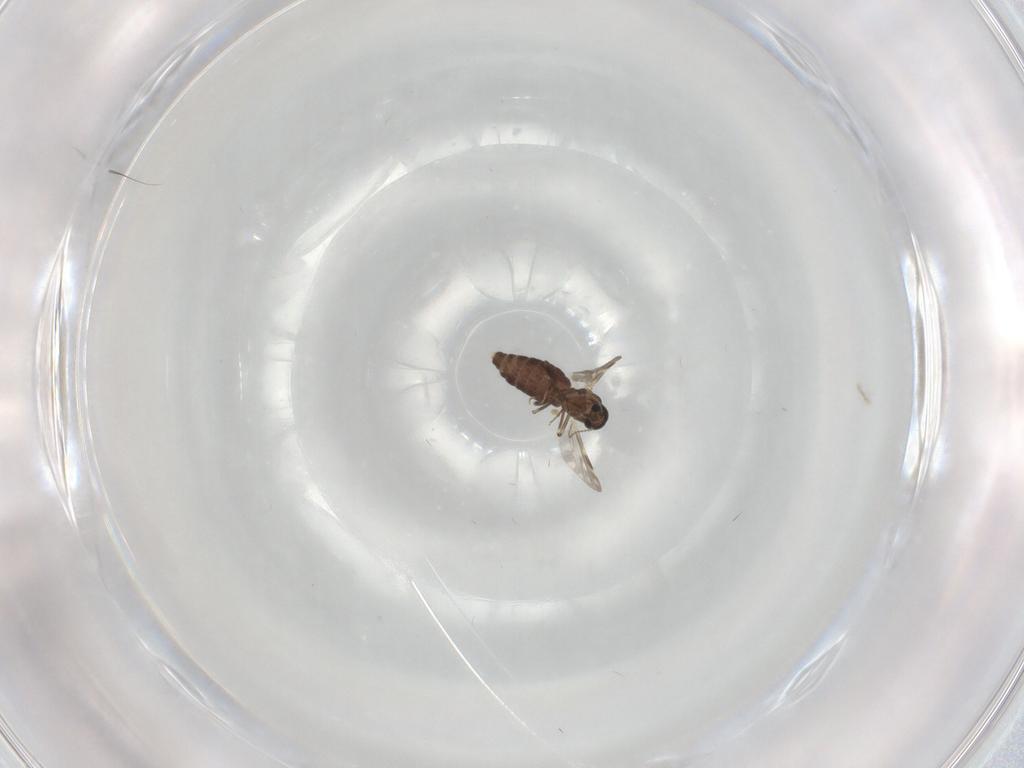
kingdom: Animalia
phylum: Arthropoda
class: Insecta
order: Diptera
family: Ceratopogonidae
